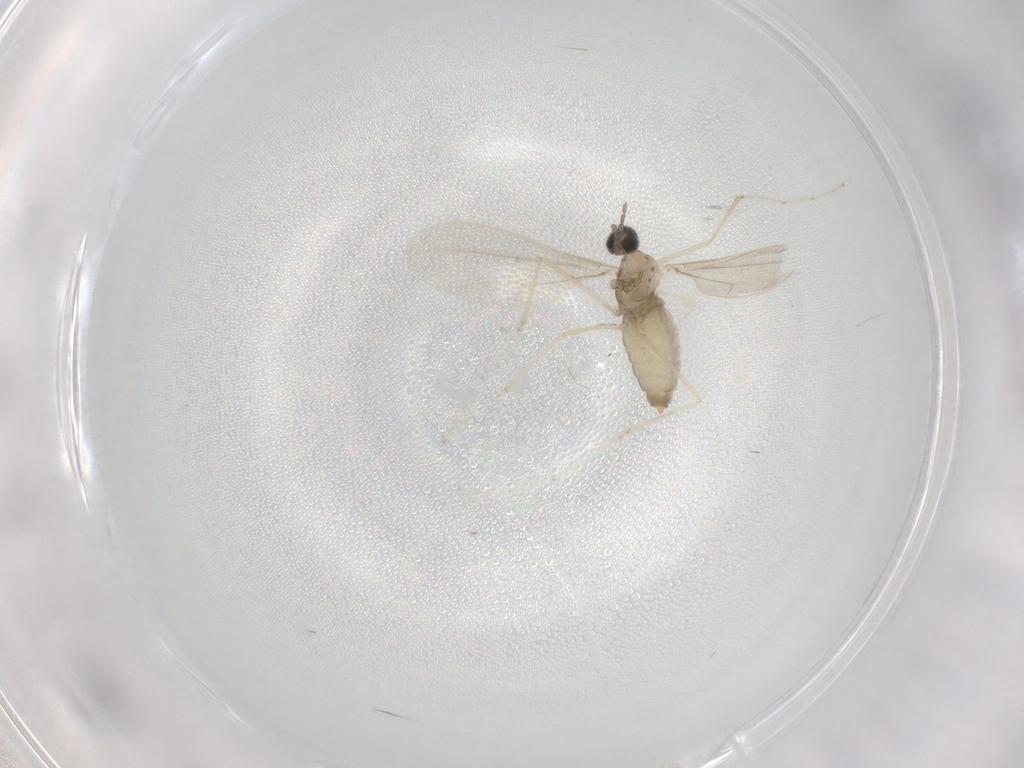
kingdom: Animalia
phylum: Arthropoda
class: Insecta
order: Diptera
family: Cecidomyiidae
